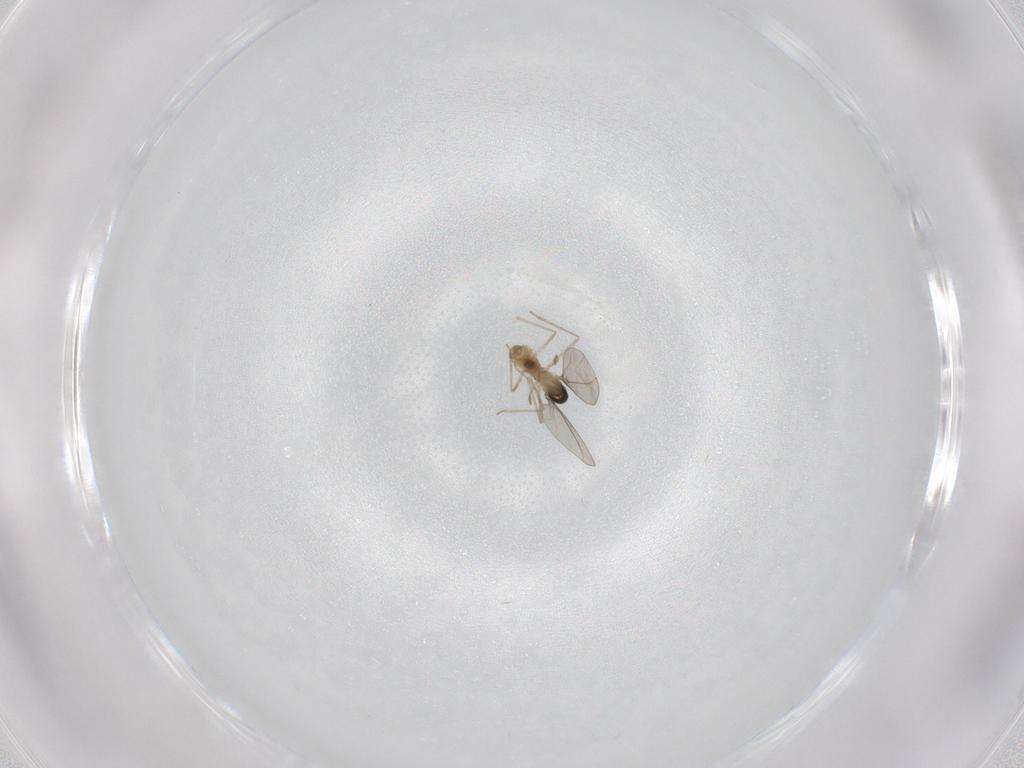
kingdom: Animalia
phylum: Arthropoda
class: Insecta
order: Diptera
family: Cecidomyiidae
